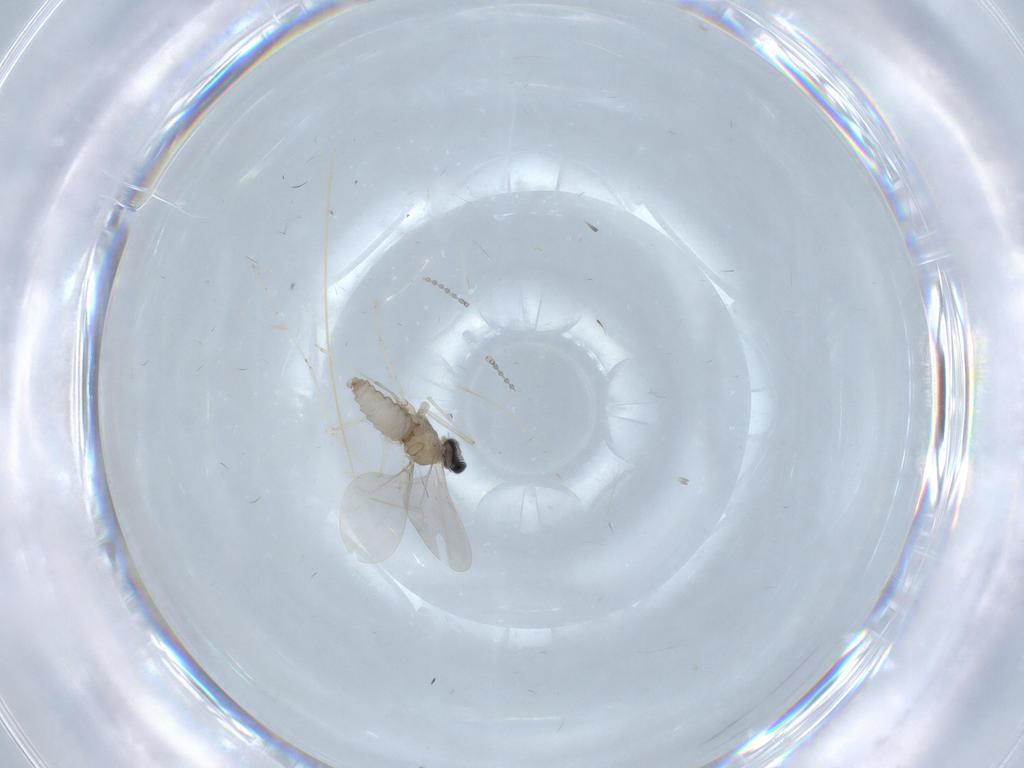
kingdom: Animalia
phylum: Arthropoda
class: Insecta
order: Diptera
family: Cecidomyiidae
